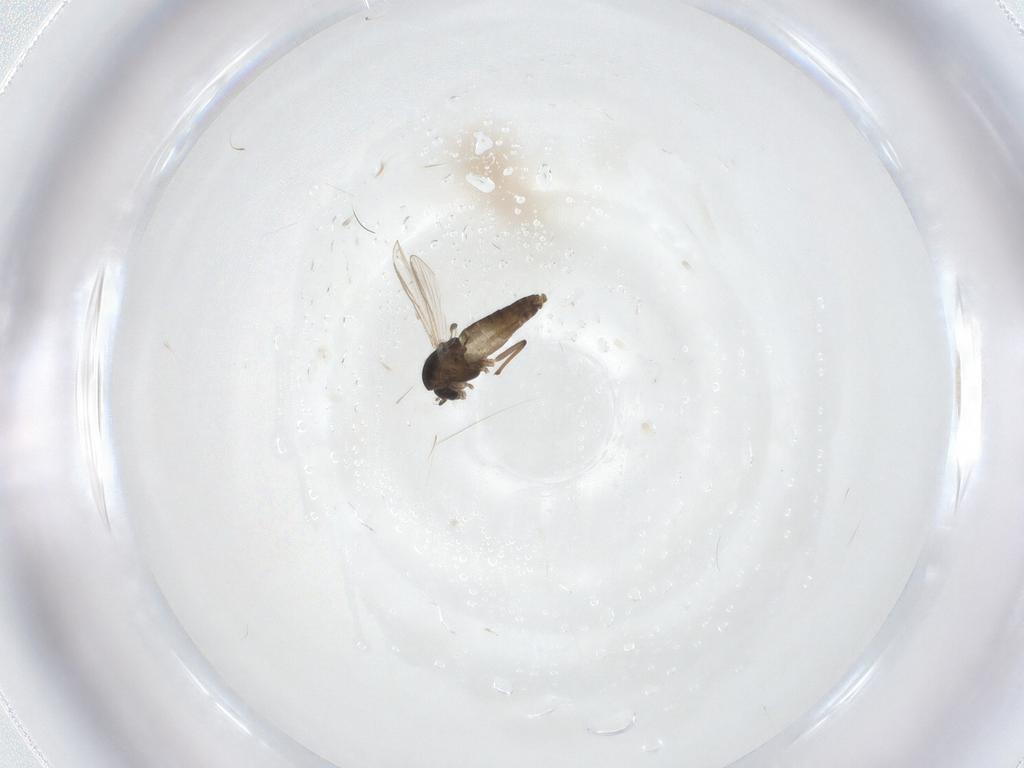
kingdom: Animalia
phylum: Arthropoda
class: Insecta
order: Diptera
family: Chironomidae
